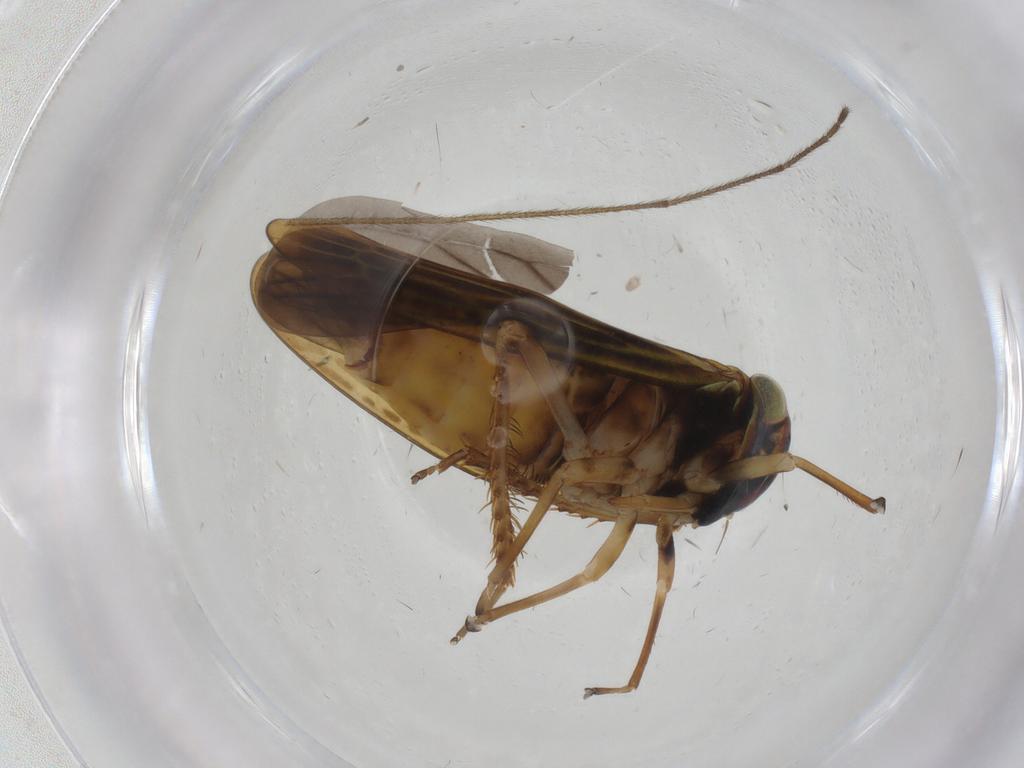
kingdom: Animalia
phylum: Arthropoda
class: Insecta
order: Hemiptera
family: Cicadellidae
